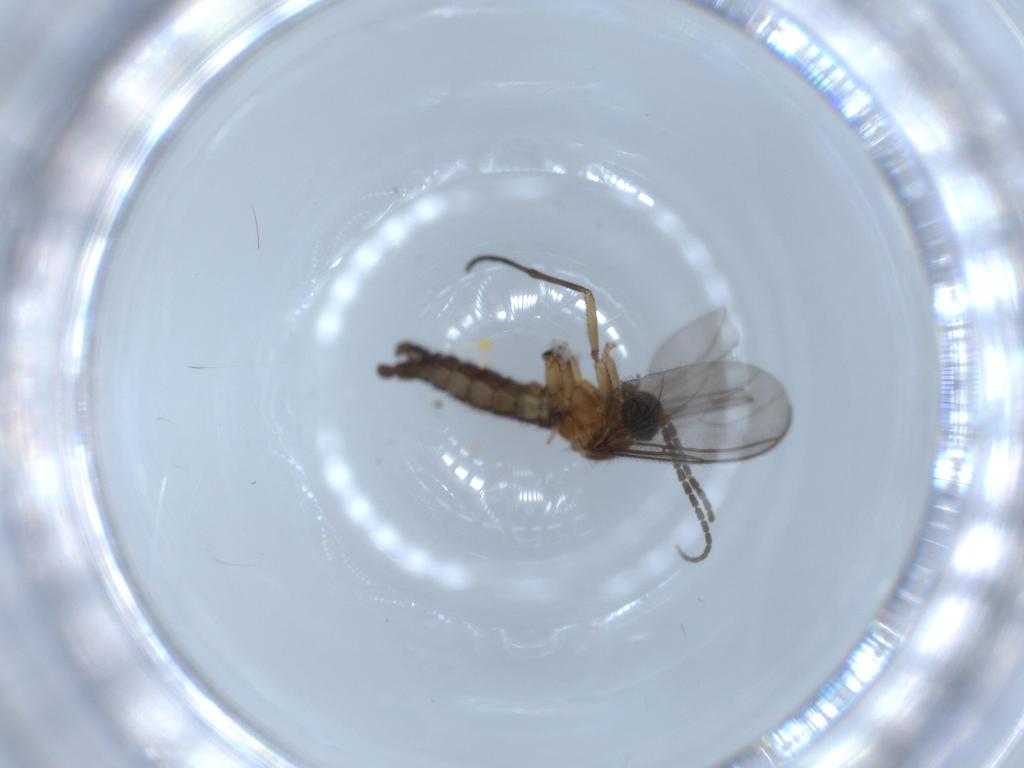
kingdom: Animalia
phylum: Arthropoda
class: Insecta
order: Diptera
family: Sciaridae
